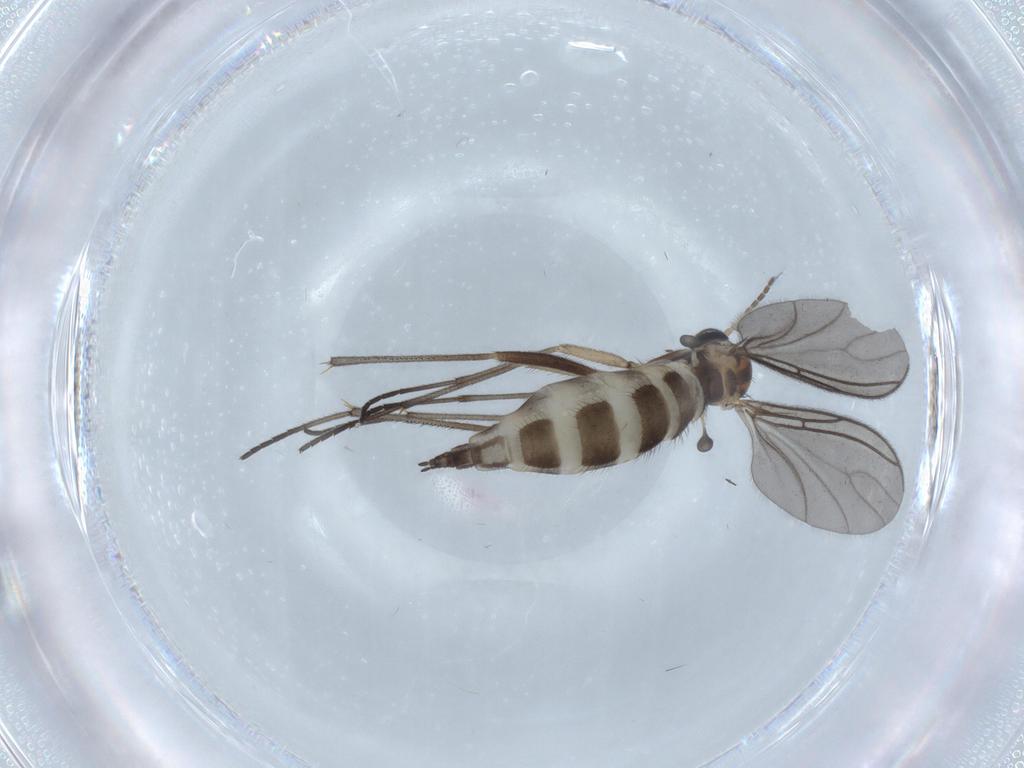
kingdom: Animalia
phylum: Arthropoda
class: Insecta
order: Diptera
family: Sciaridae
